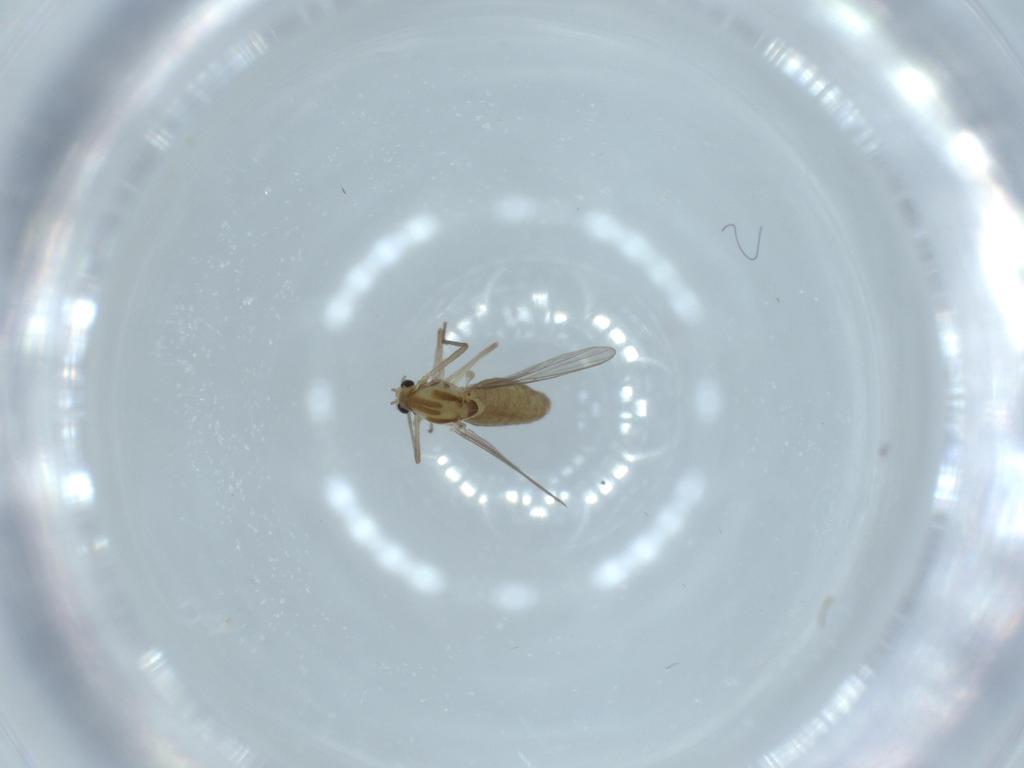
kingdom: Animalia
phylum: Arthropoda
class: Insecta
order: Diptera
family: Chironomidae
